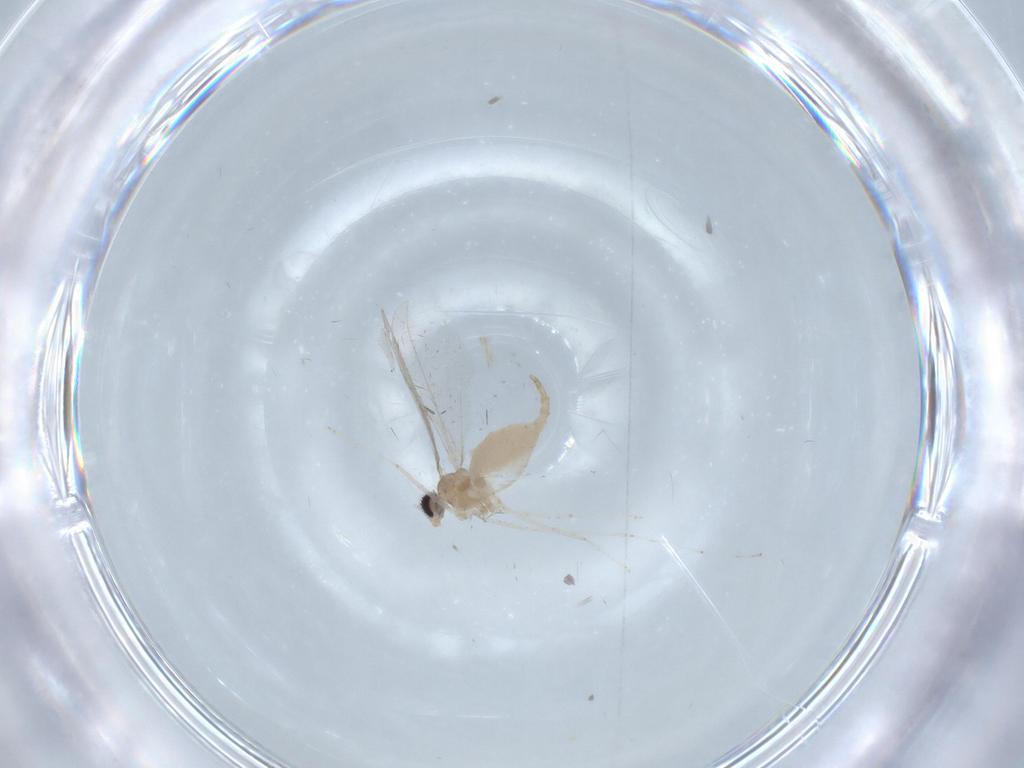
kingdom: Animalia
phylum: Arthropoda
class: Insecta
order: Diptera
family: Cecidomyiidae
